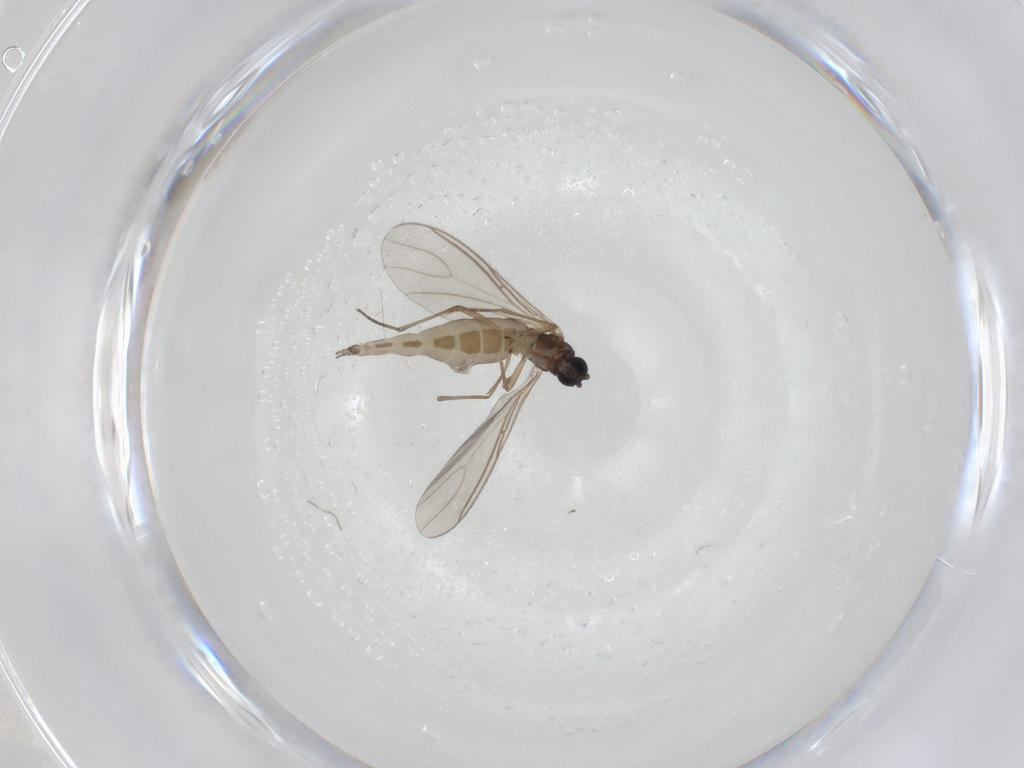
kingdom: Animalia
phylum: Arthropoda
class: Insecta
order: Diptera
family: Sciaridae
